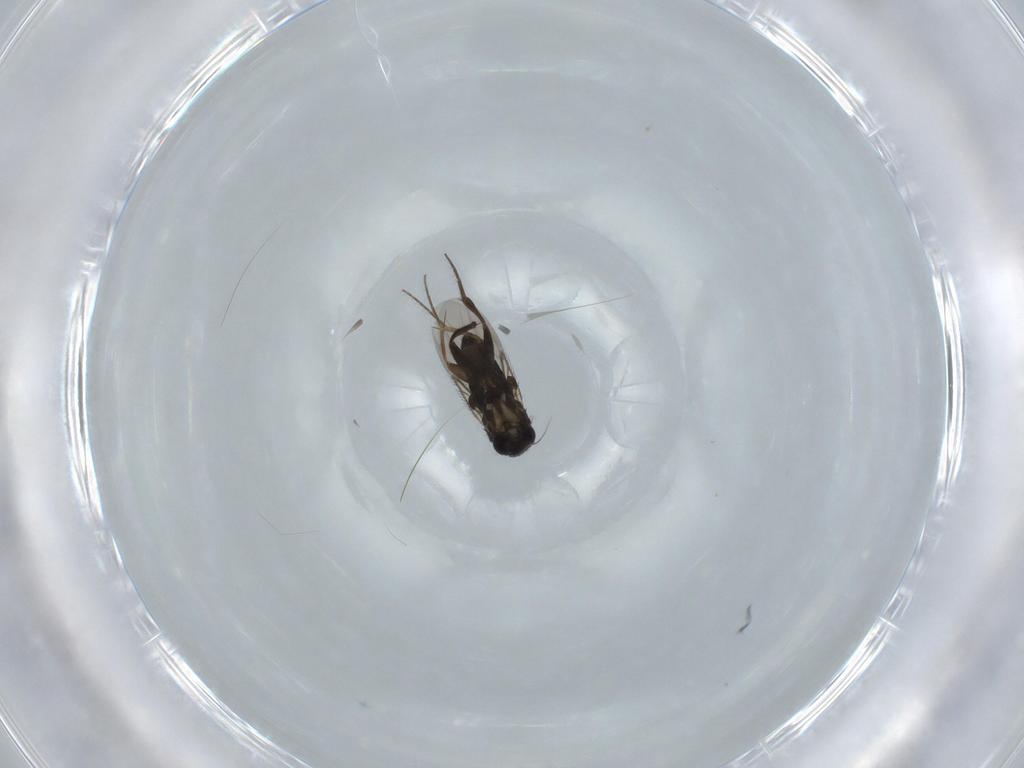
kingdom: Animalia
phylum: Arthropoda
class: Insecta
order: Diptera
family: Phoridae
